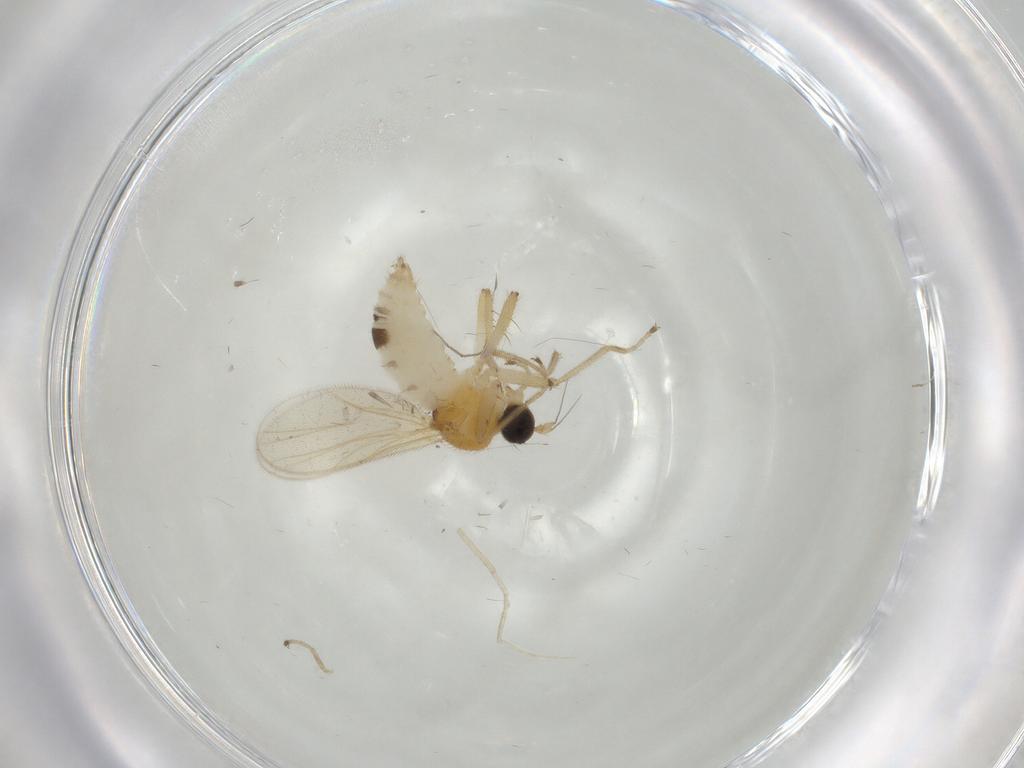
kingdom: Animalia
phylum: Arthropoda
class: Insecta
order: Diptera
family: Hybotidae
